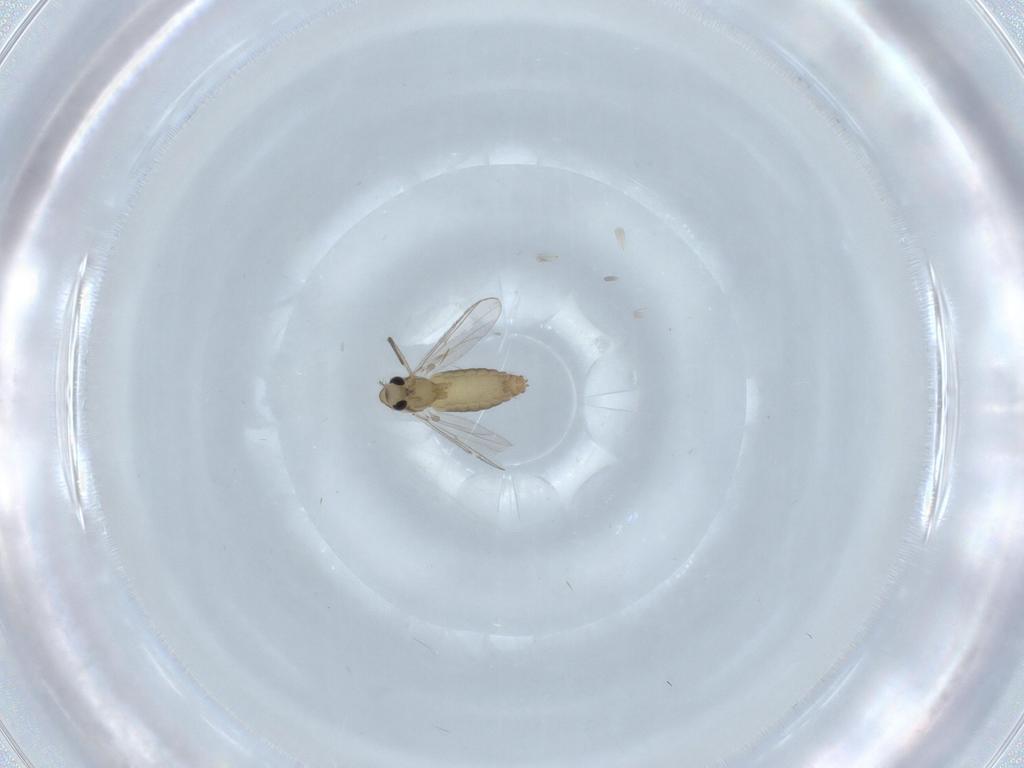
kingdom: Animalia
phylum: Arthropoda
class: Insecta
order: Diptera
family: Chironomidae
